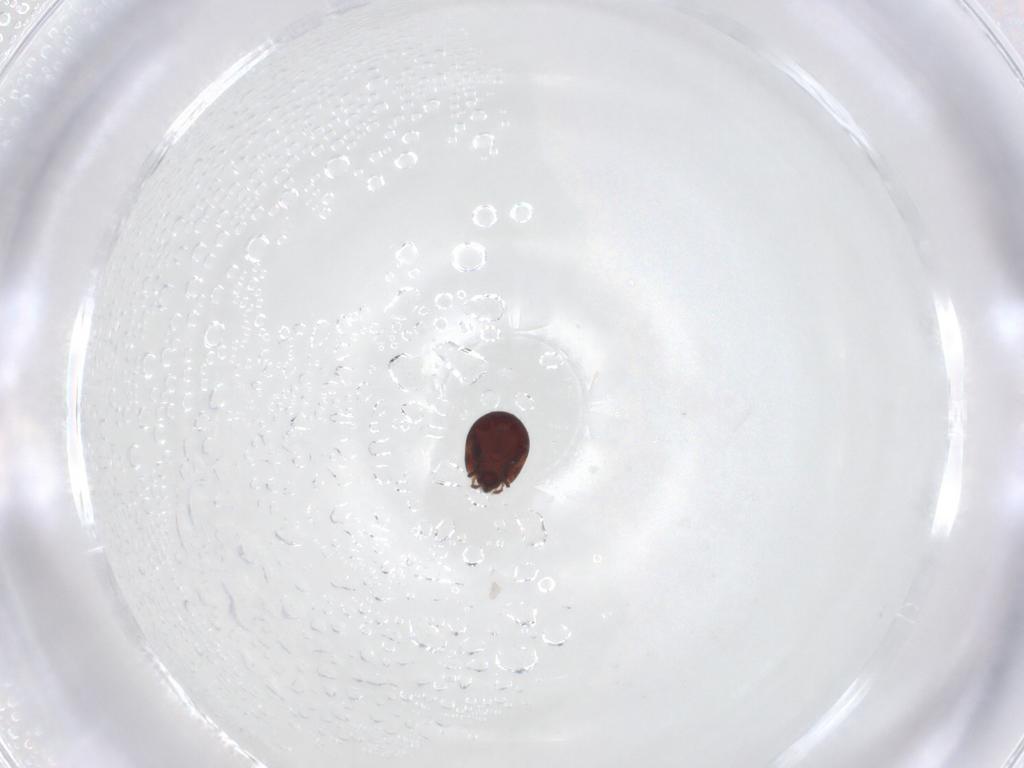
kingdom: Animalia
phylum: Arthropoda
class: Arachnida
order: Sarcoptiformes
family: Humerobatidae
